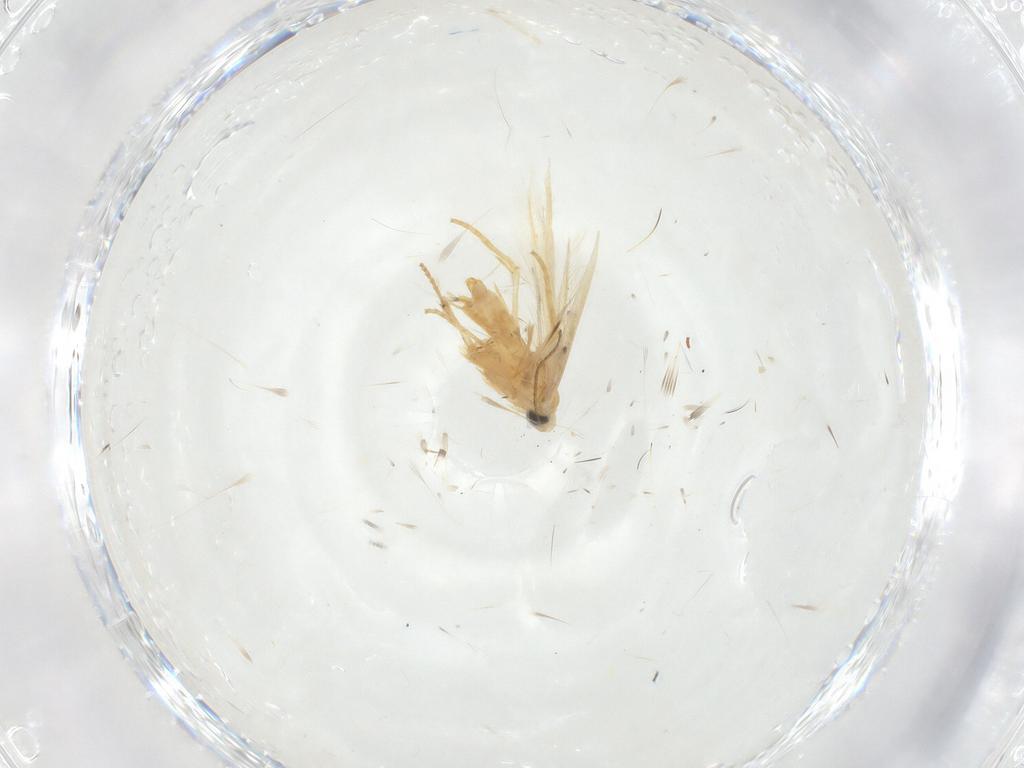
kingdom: Animalia
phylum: Arthropoda
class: Insecta
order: Lepidoptera
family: Tischeriidae
